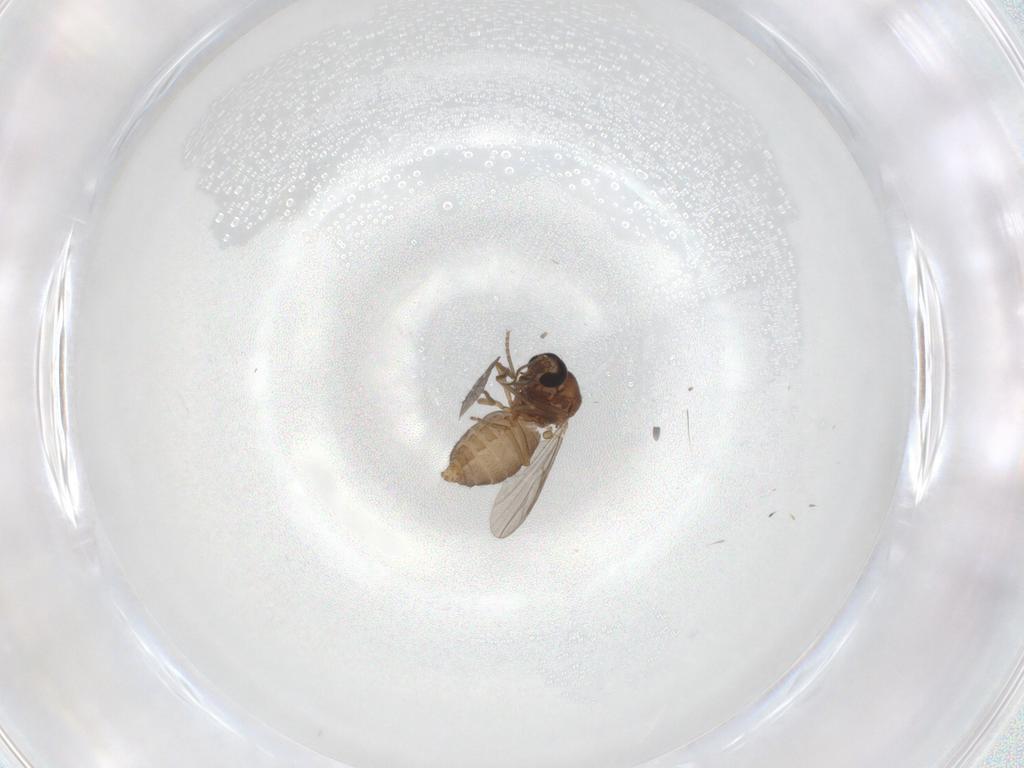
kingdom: Animalia
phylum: Arthropoda
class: Insecta
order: Diptera
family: Ceratopogonidae
